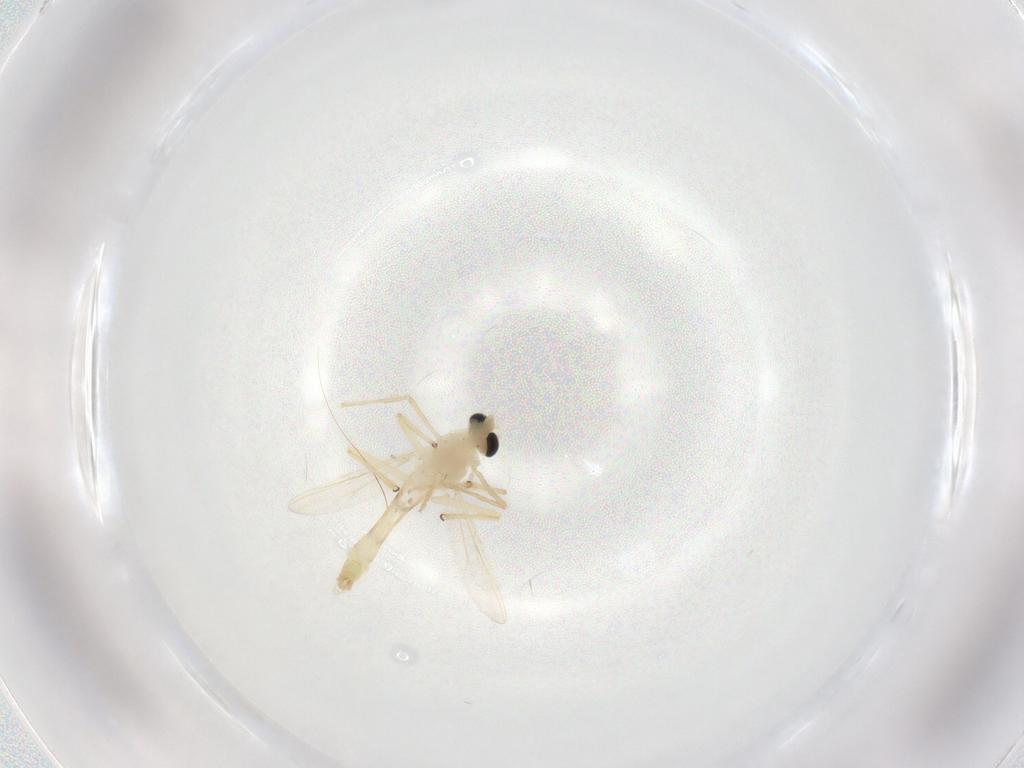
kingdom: Animalia
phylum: Arthropoda
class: Insecta
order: Diptera
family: Chironomidae
